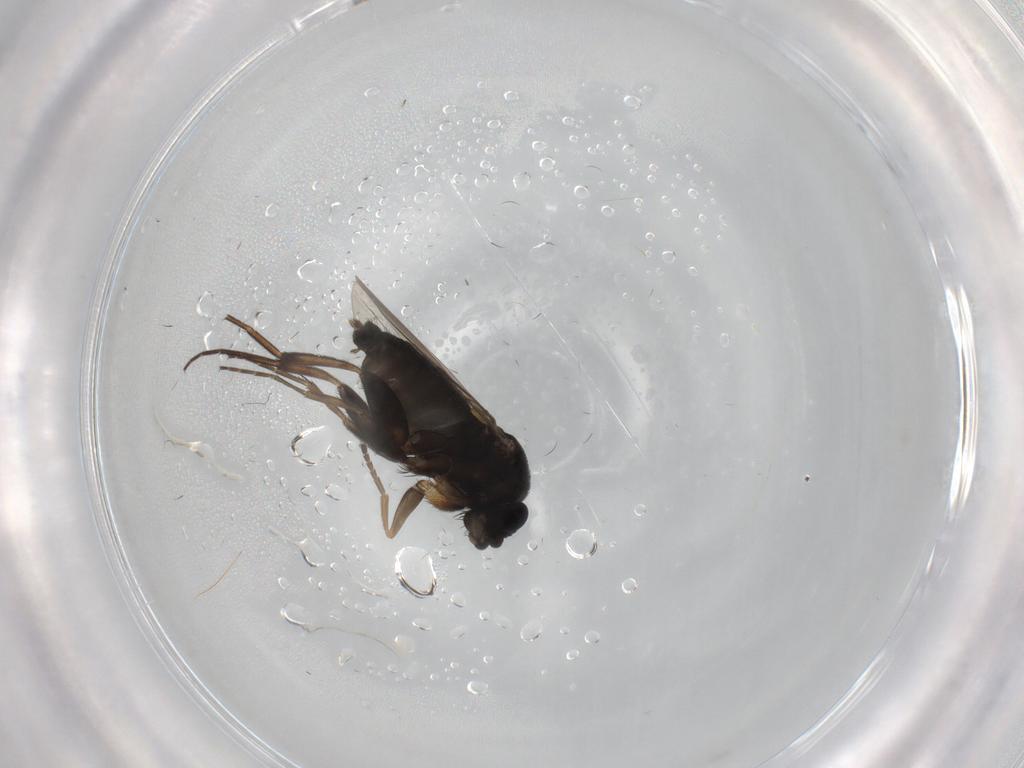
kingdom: Animalia
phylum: Arthropoda
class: Insecta
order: Diptera
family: Phoridae
